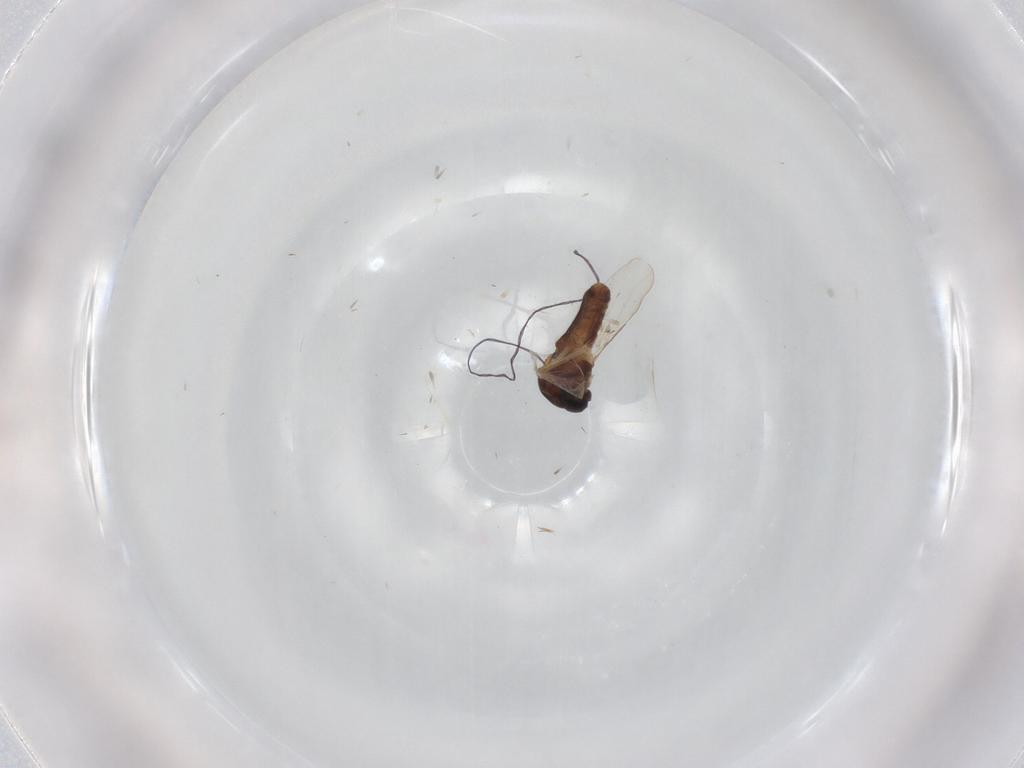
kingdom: Animalia
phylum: Arthropoda
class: Insecta
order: Diptera
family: Ceratopogonidae
